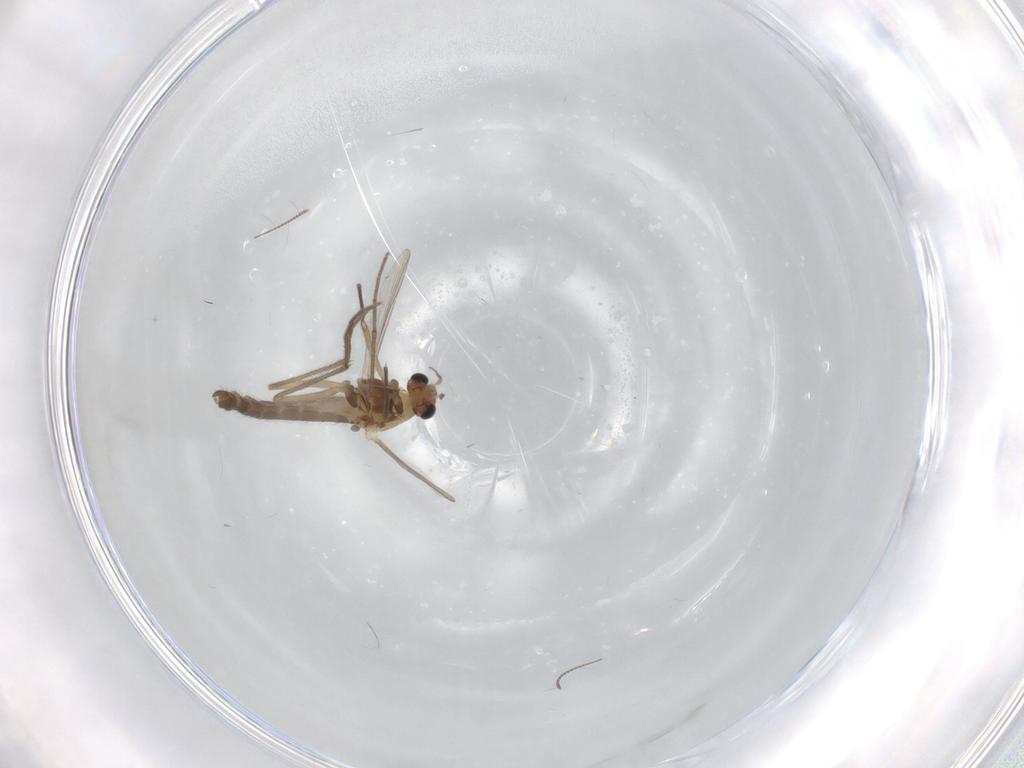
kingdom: Animalia
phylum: Arthropoda
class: Insecta
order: Diptera
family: Chironomidae
